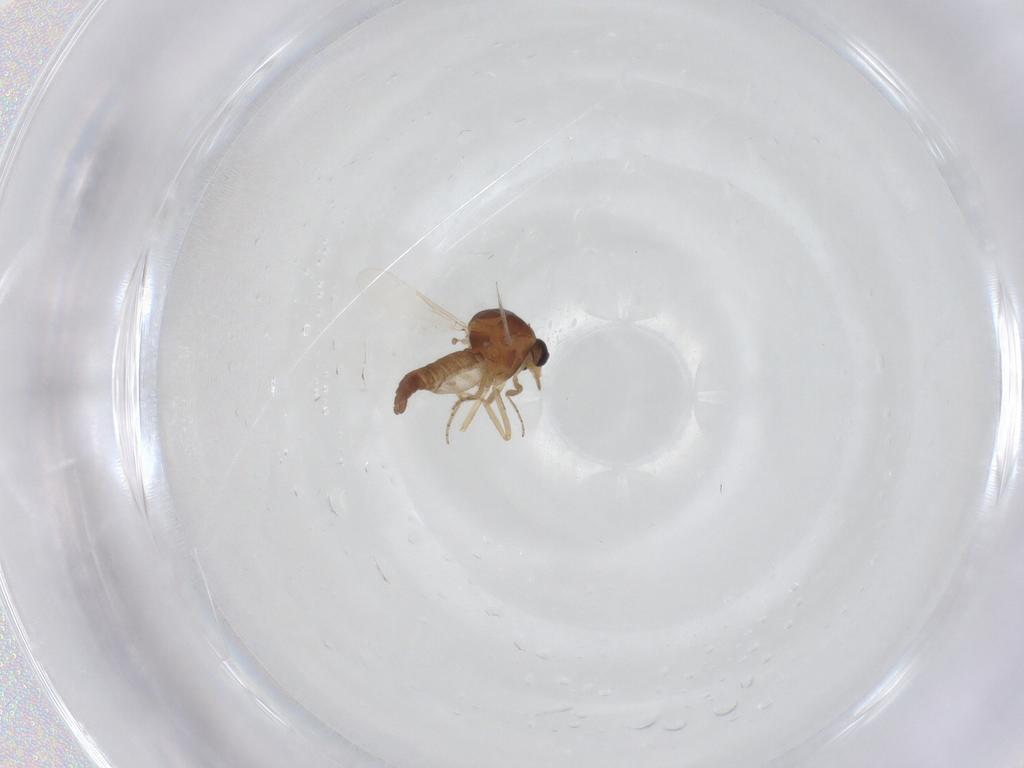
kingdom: Animalia
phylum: Arthropoda
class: Insecta
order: Diptera
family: Ceratopogonidae
